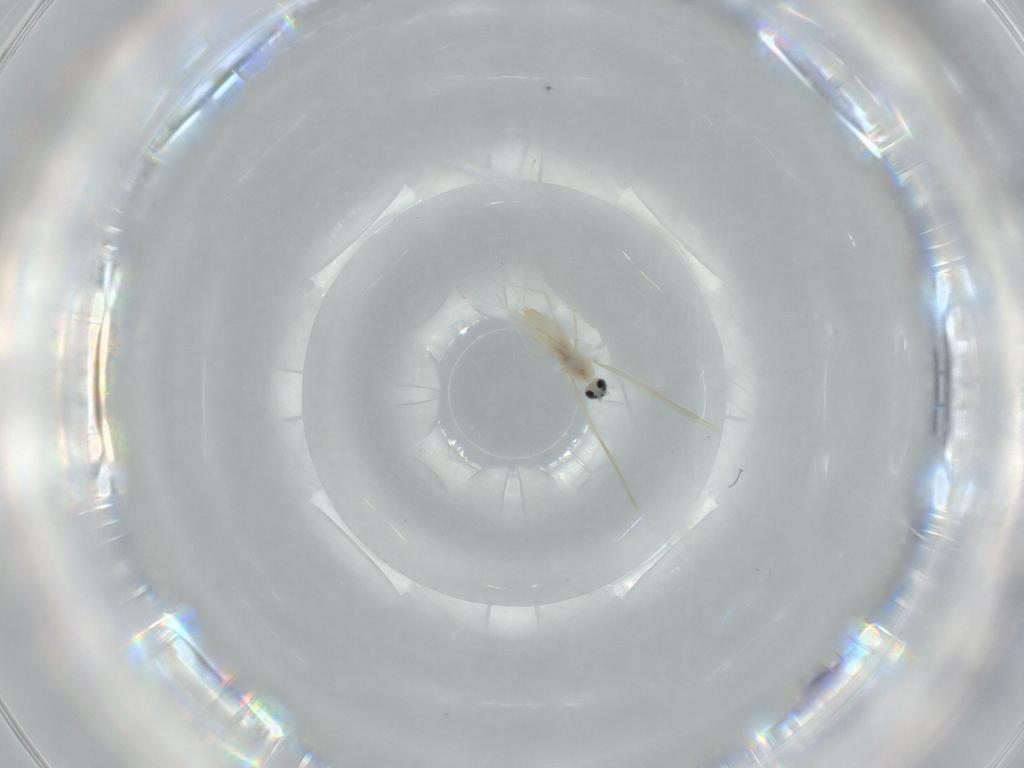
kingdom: Animalia
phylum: Arthropoda
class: Insecta
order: Diptera
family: Cecidomyiidae
